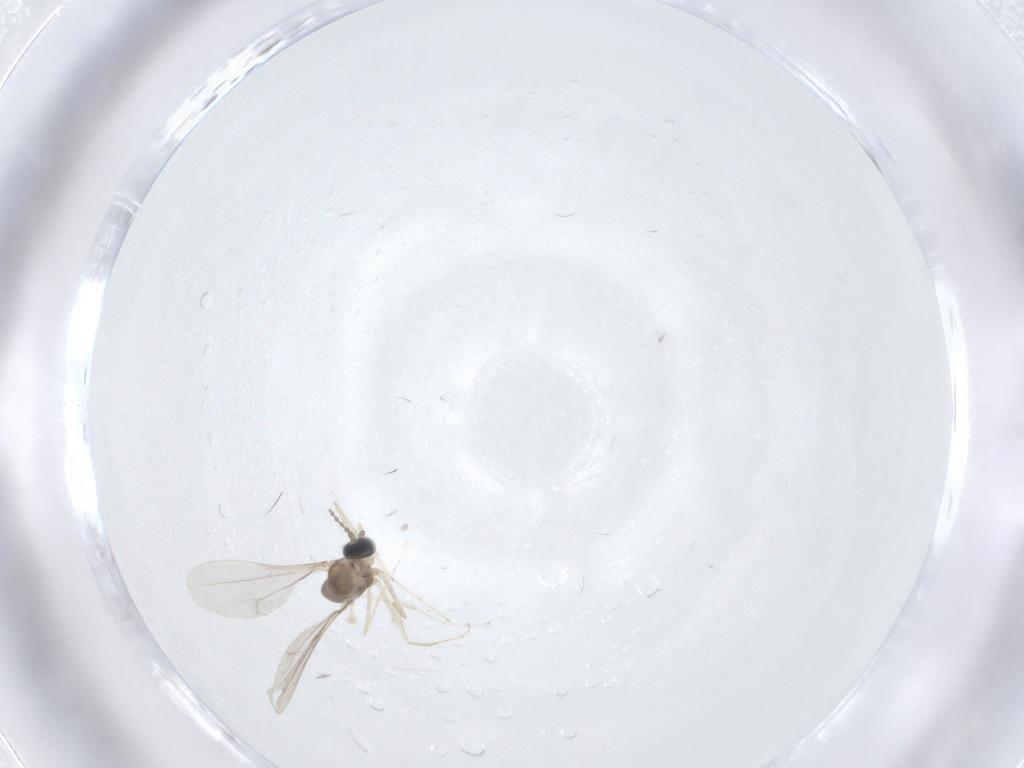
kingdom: Animalia
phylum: Arthropoda
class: Insecta
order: Diptera
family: Cecidomyiidae
